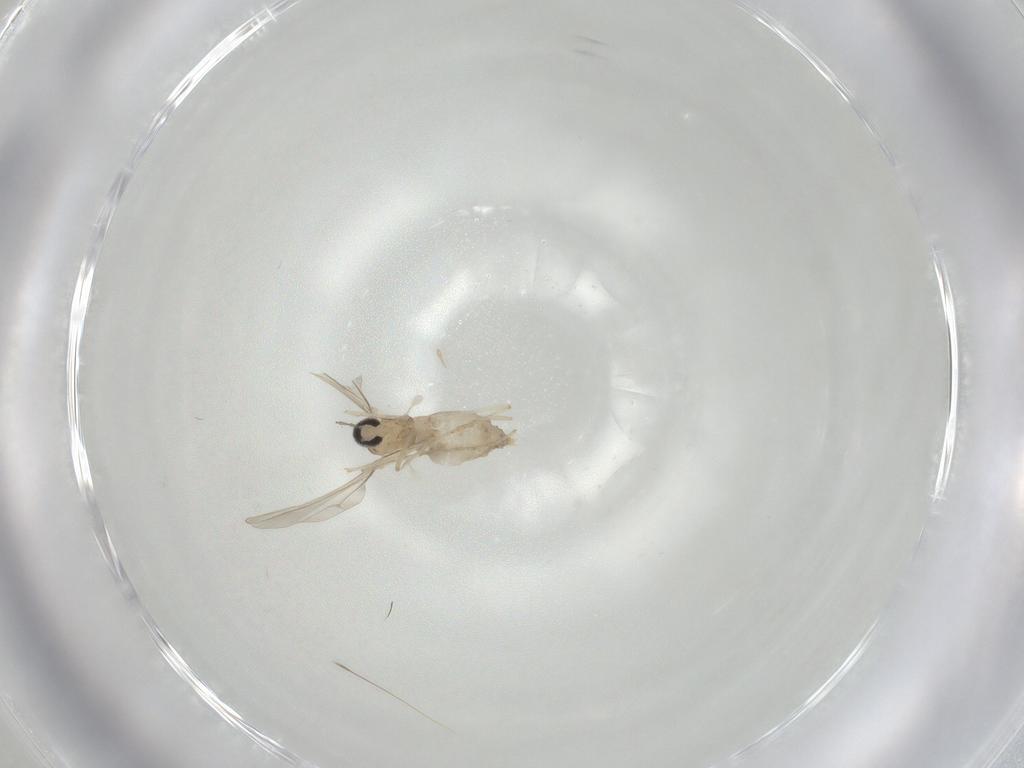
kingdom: Animalia
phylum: Arthropoda
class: Insecta
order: Diptera
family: Cecidomyiidae
